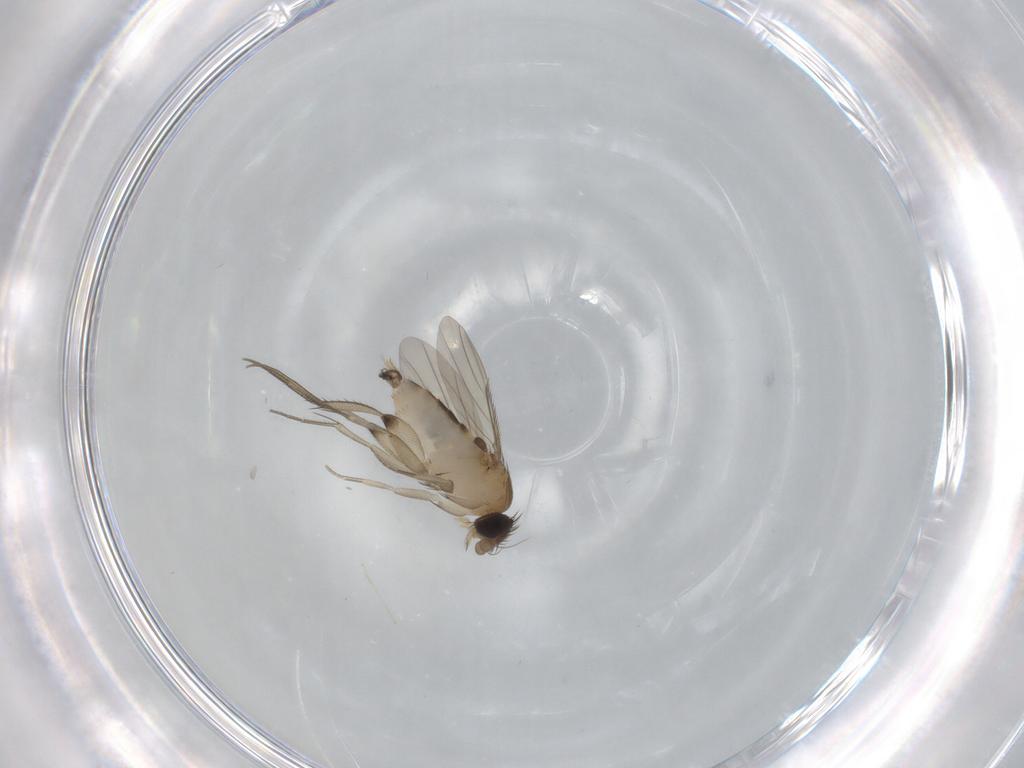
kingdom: Animalia
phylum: Arthropoda
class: Insecta
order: Diptera
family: Phoridae
